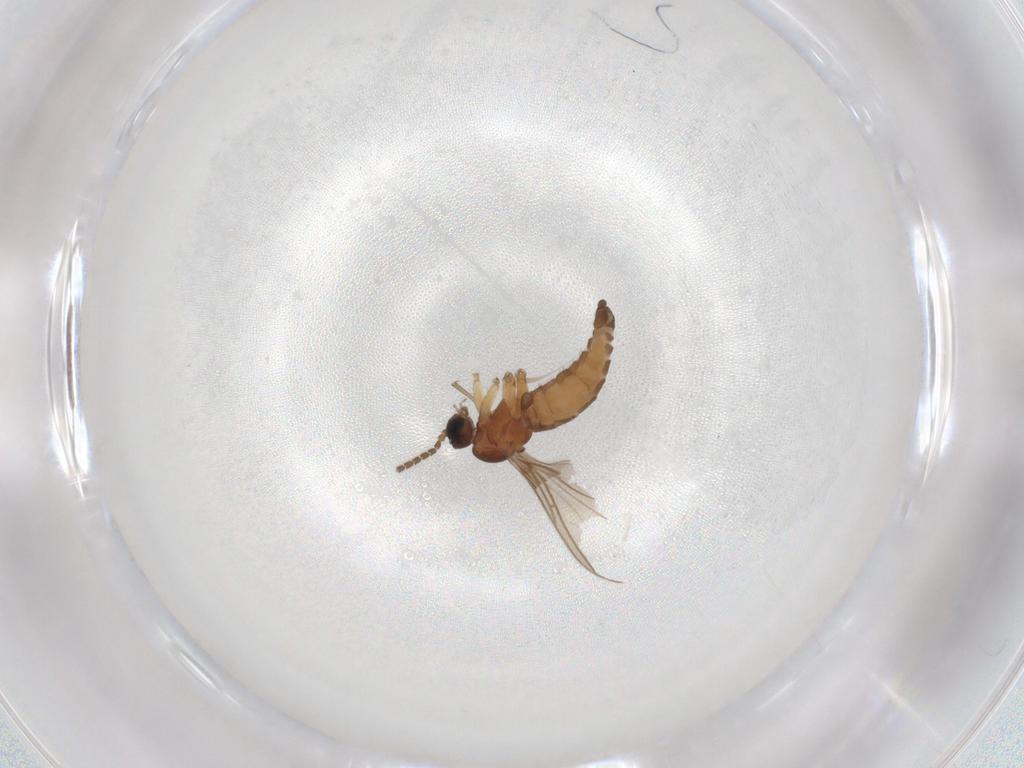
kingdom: Animalia
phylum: Arthropoda
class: Insecta
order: Diptera
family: Sciaridae
